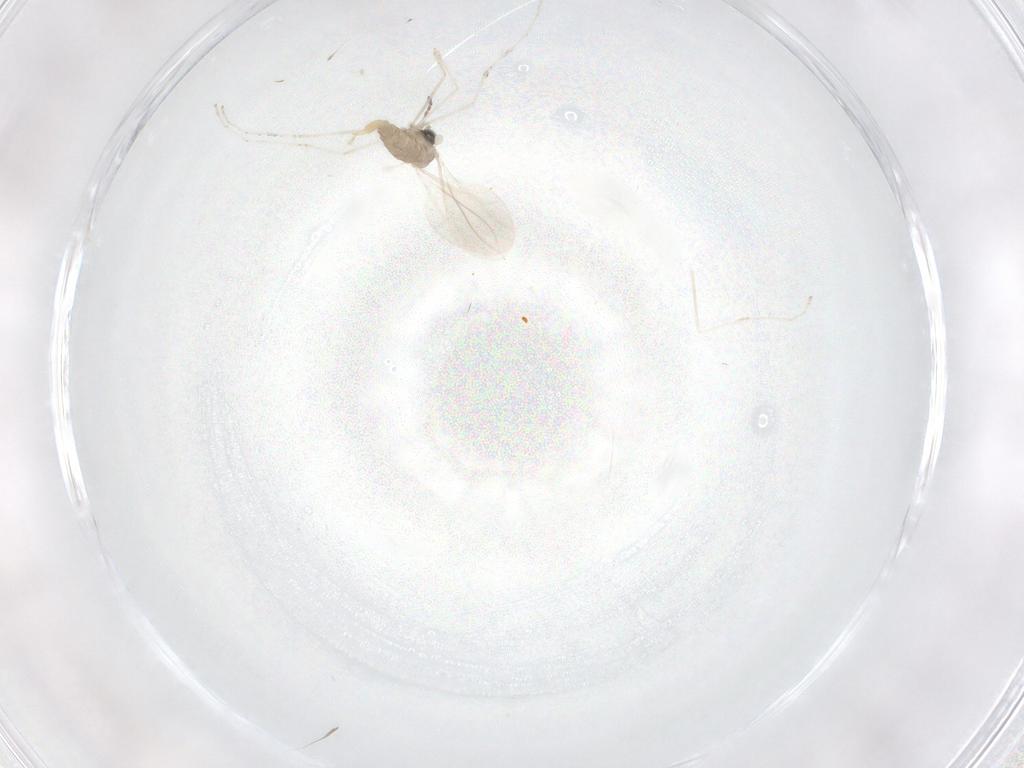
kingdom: Animalia
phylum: Arthropoda
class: Insecta
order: Diptera
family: Cecidomyiidae
